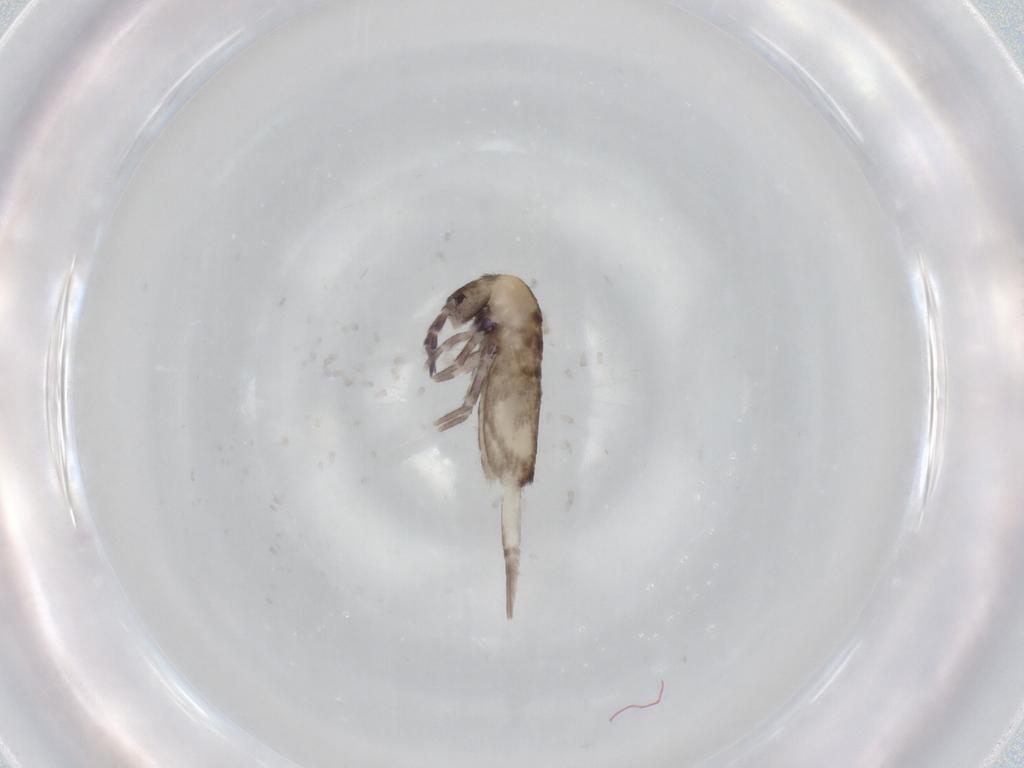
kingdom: Animalia
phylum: Arthropoda
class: Collembola
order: Entomobryomorpha
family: Entomobryidae
